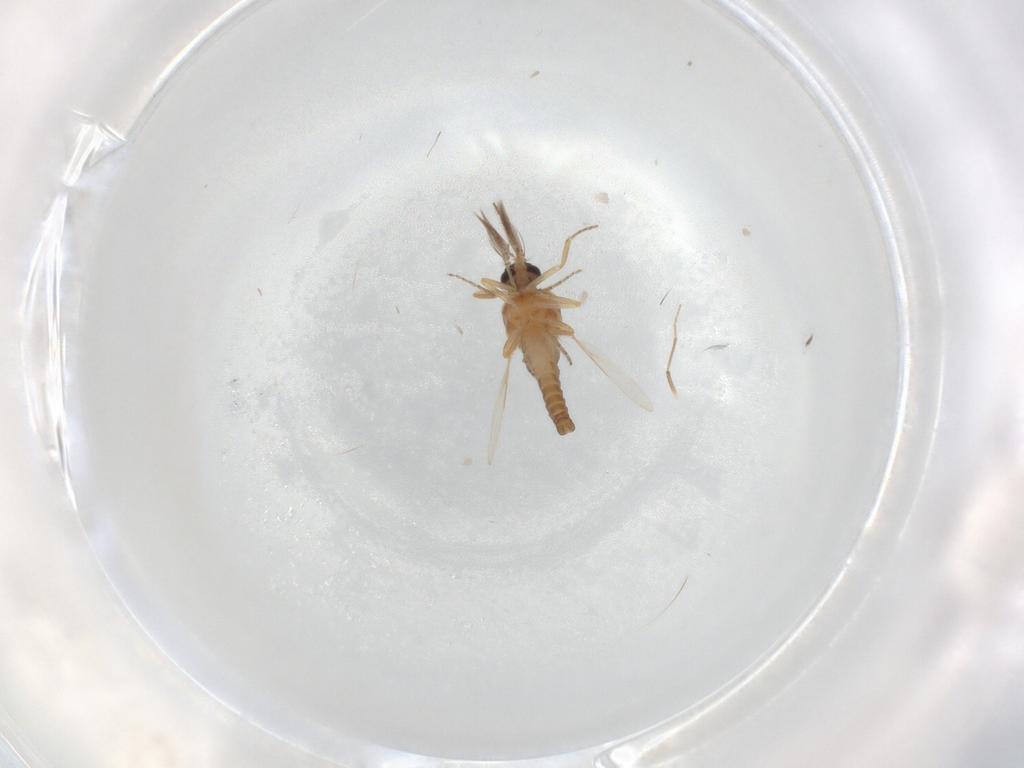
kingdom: Animalia
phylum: Arthropoda
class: Insecta
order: Diptera
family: Ceratopogonidae
